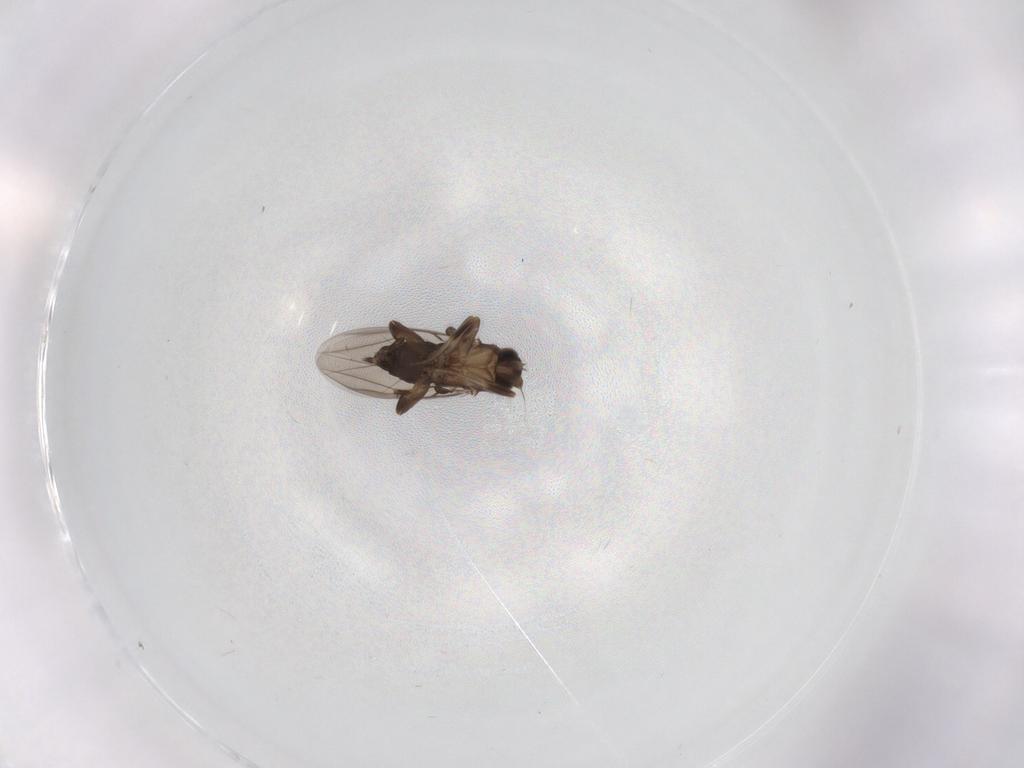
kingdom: Animalia
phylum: Arthropoda
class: Insecta
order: Diptera
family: Phoridae
